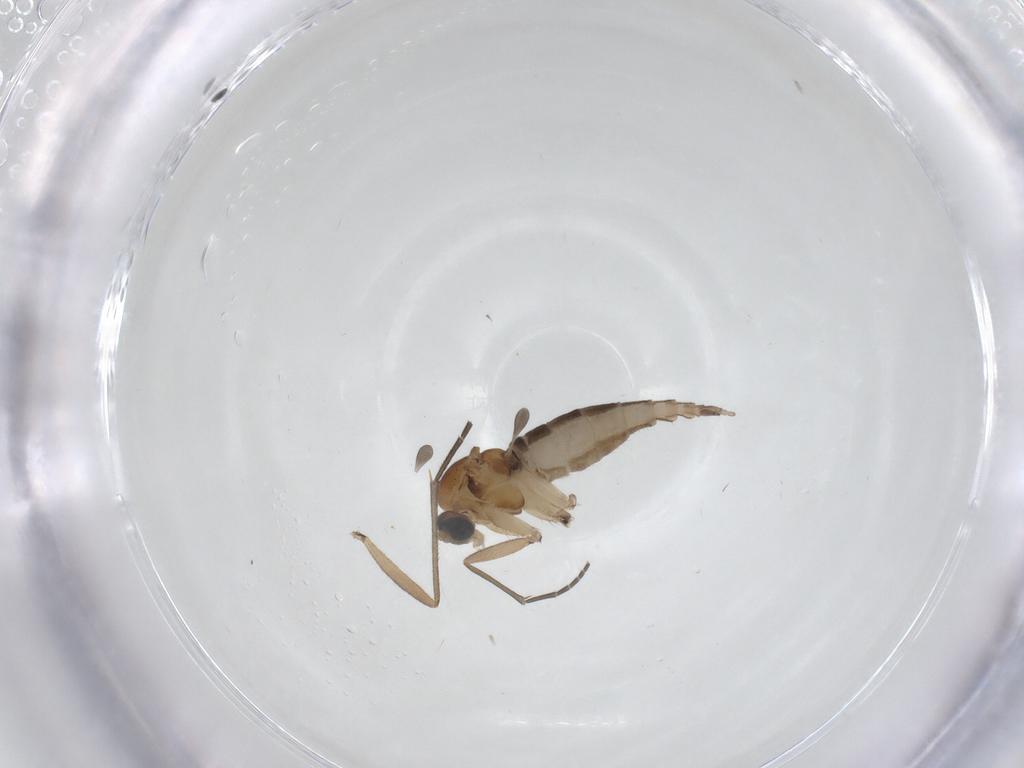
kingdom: Animalia
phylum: Arthropoda
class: Insecta
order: Diptera
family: Sciaridae
